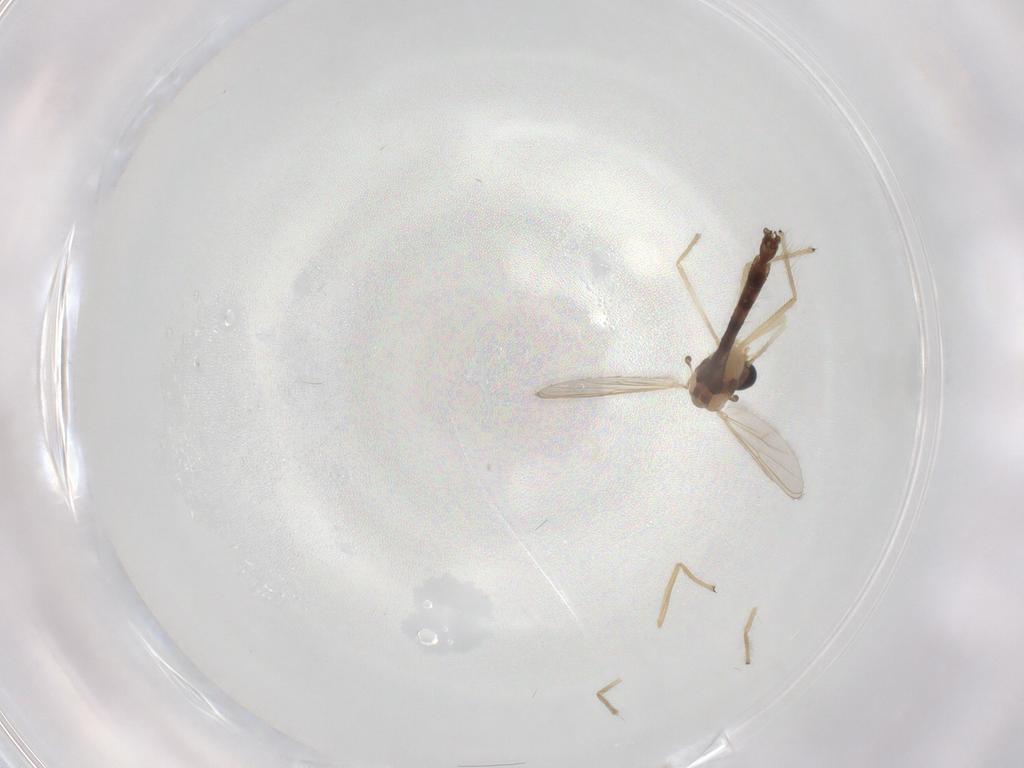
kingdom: Animalia
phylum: Arthropoda
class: Insecta
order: Diptera
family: Chironomidae
